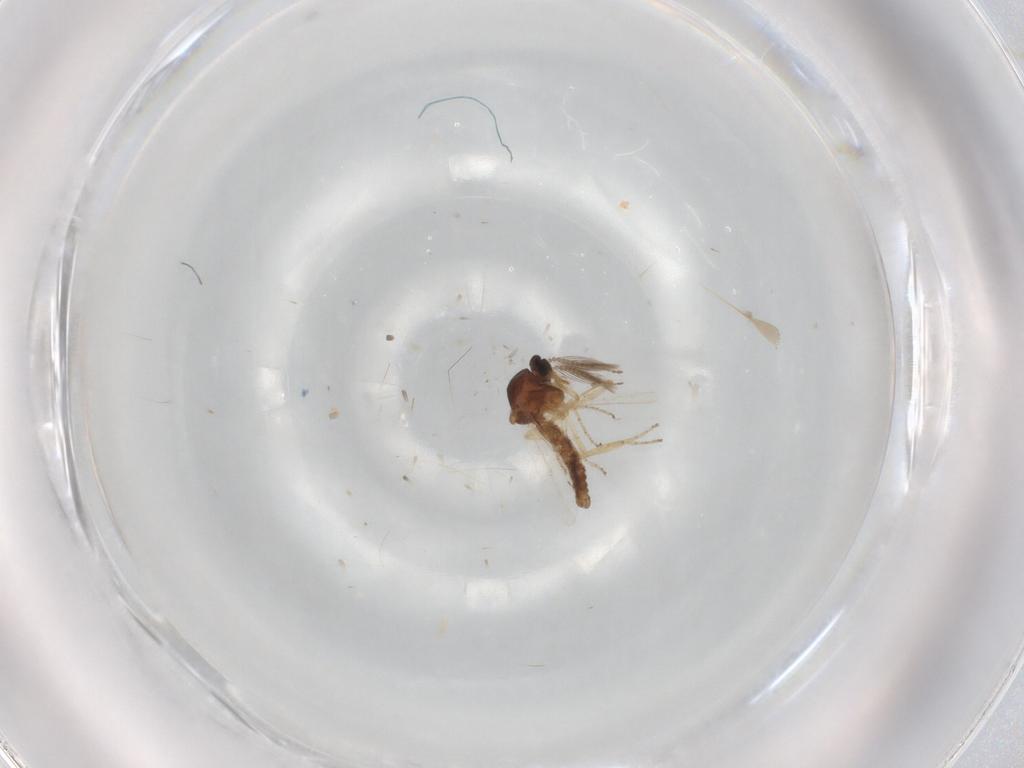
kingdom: Animalia
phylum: Arthropoda
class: Insecta
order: Diptera
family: Ceratopogonidae
